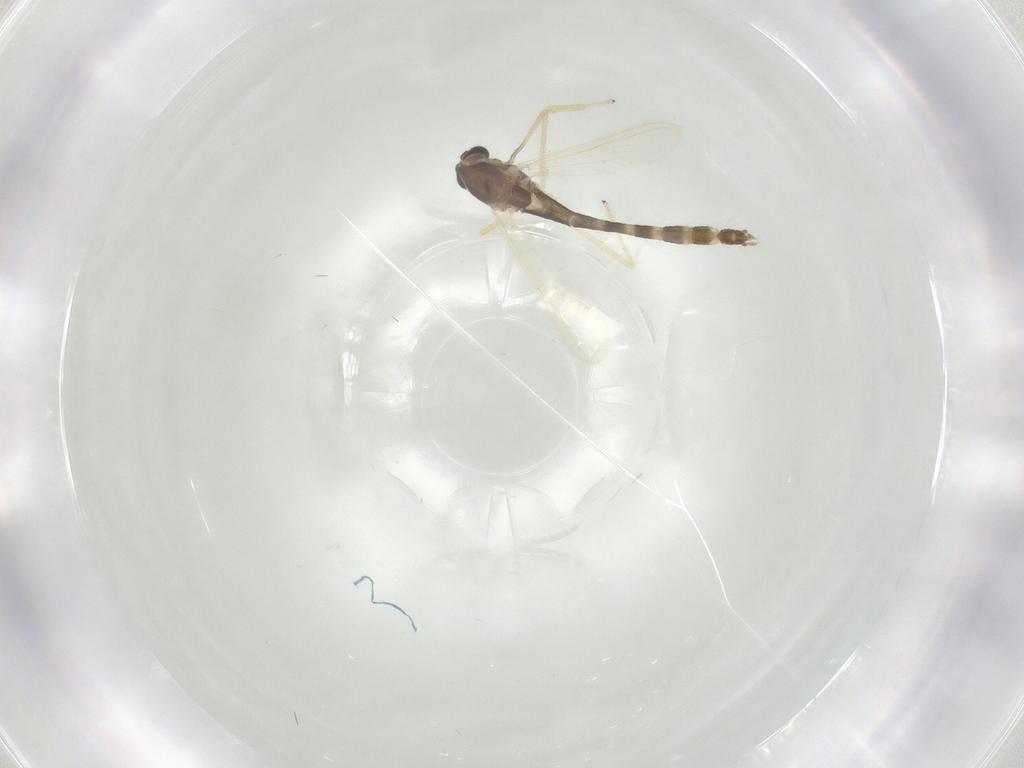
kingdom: Animalia
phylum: Arthropoda
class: Insecta
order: Diptera
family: Chironomidae
